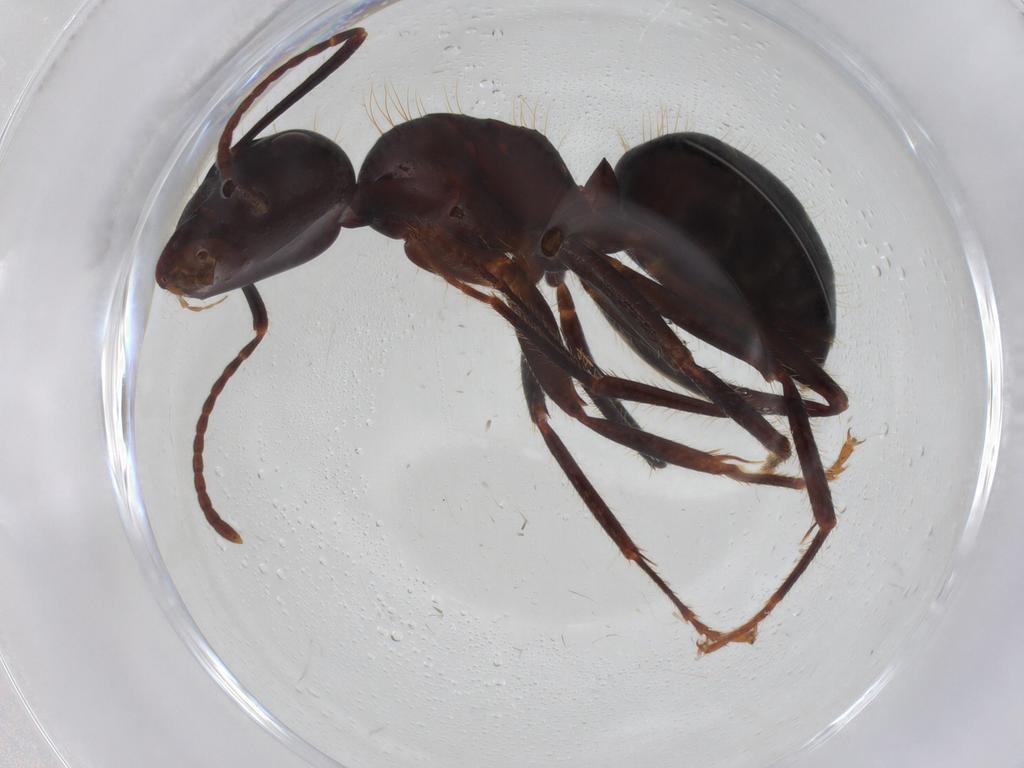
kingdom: Animalia
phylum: Arthropoda
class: Insecta
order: Hymenoptera
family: Formicidae
